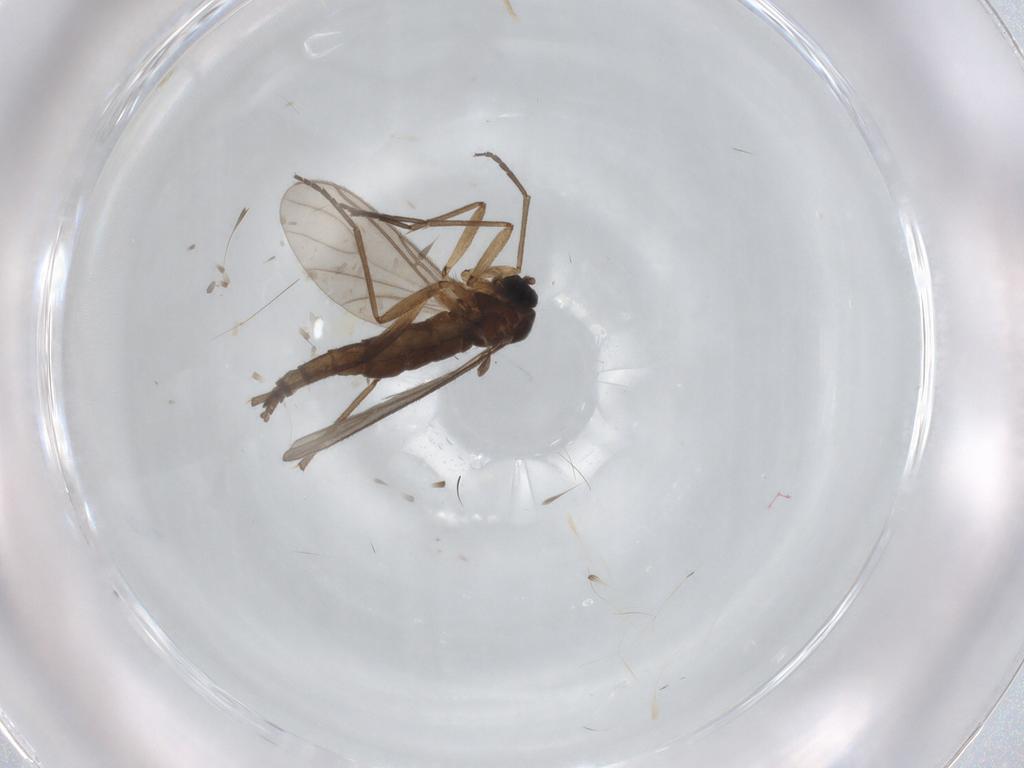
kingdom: Animalia
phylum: Arthropoda
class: Insecta
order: Diptera
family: Sciaridae
